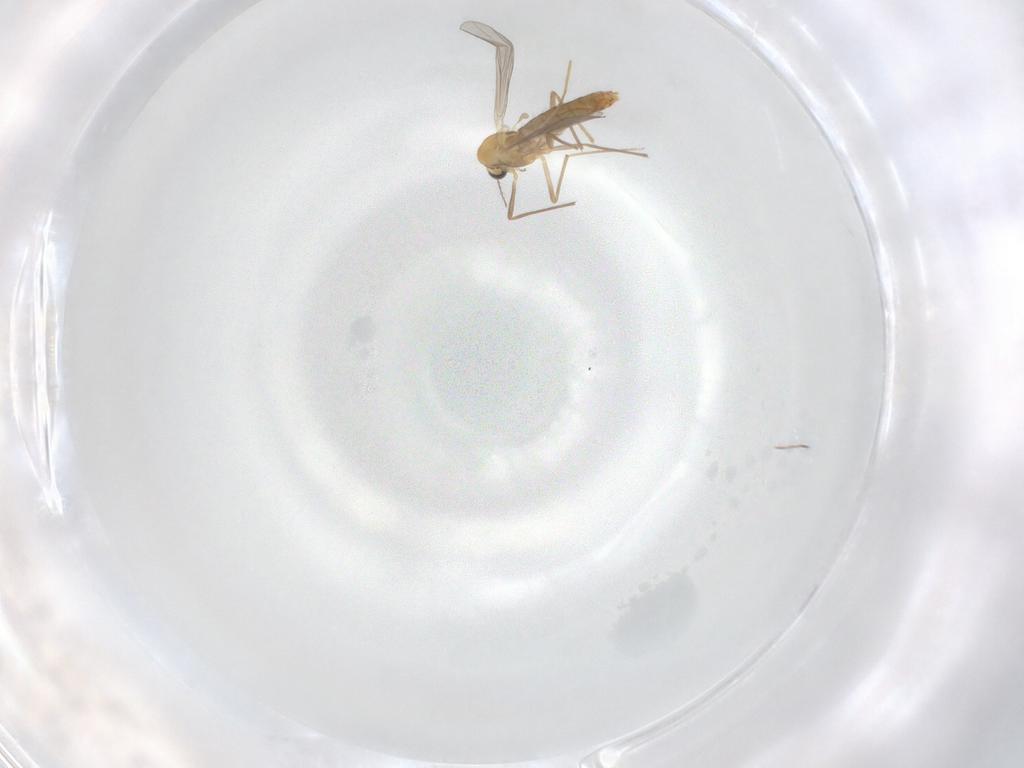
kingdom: Animalia
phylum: Arthropoda
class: Insecta
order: Diptera
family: Chironomidae
